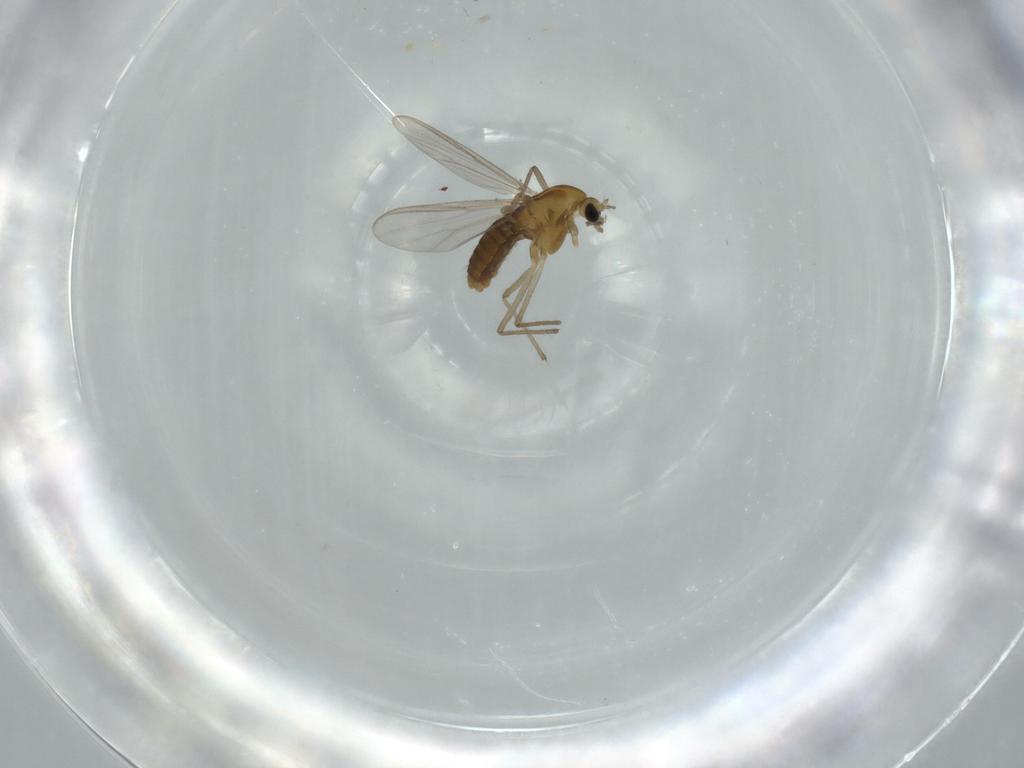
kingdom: Animalia
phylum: Arthropoda
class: Insecta
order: Diptera
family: Chironomidae
